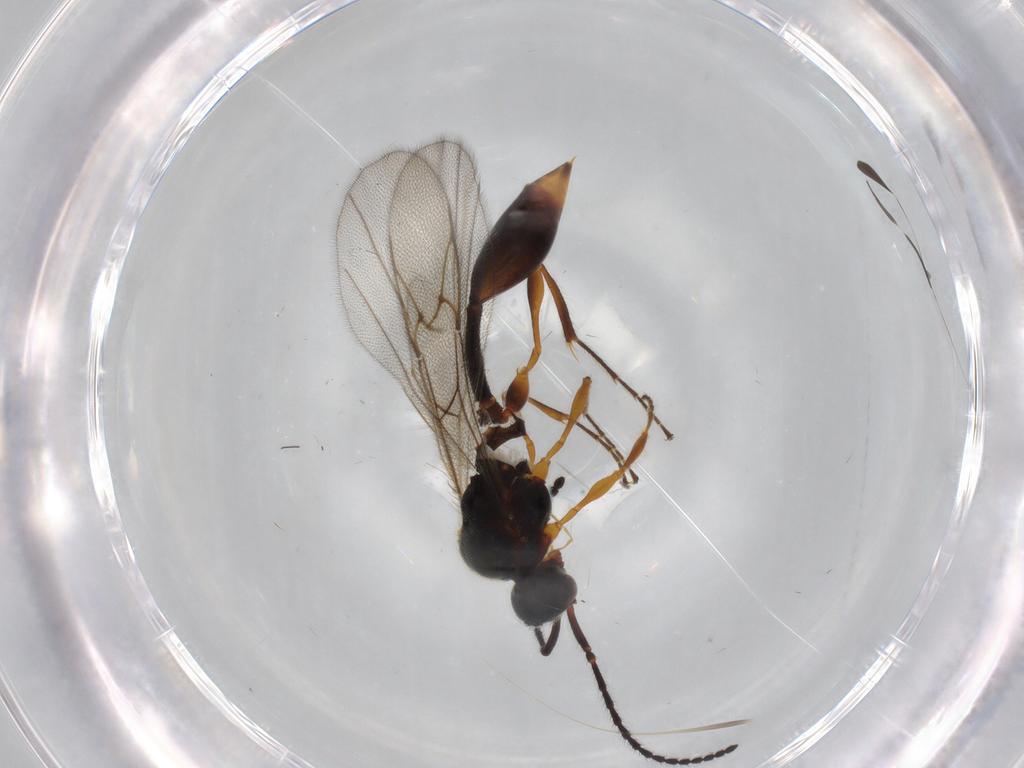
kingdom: Animalia
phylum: Arthropoda
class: Insecta
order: Hymenoptera
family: Diapriidae
